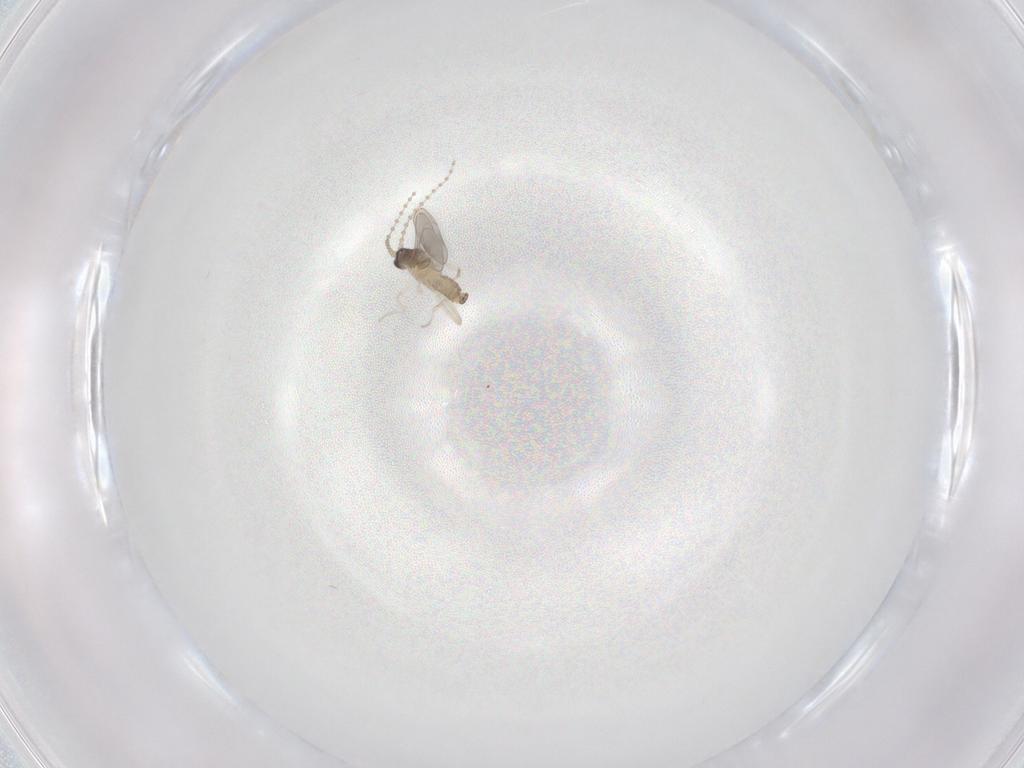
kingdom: Animalia
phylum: Arthropoda
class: Insecta
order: Diptera
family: Cecidomyiidae
